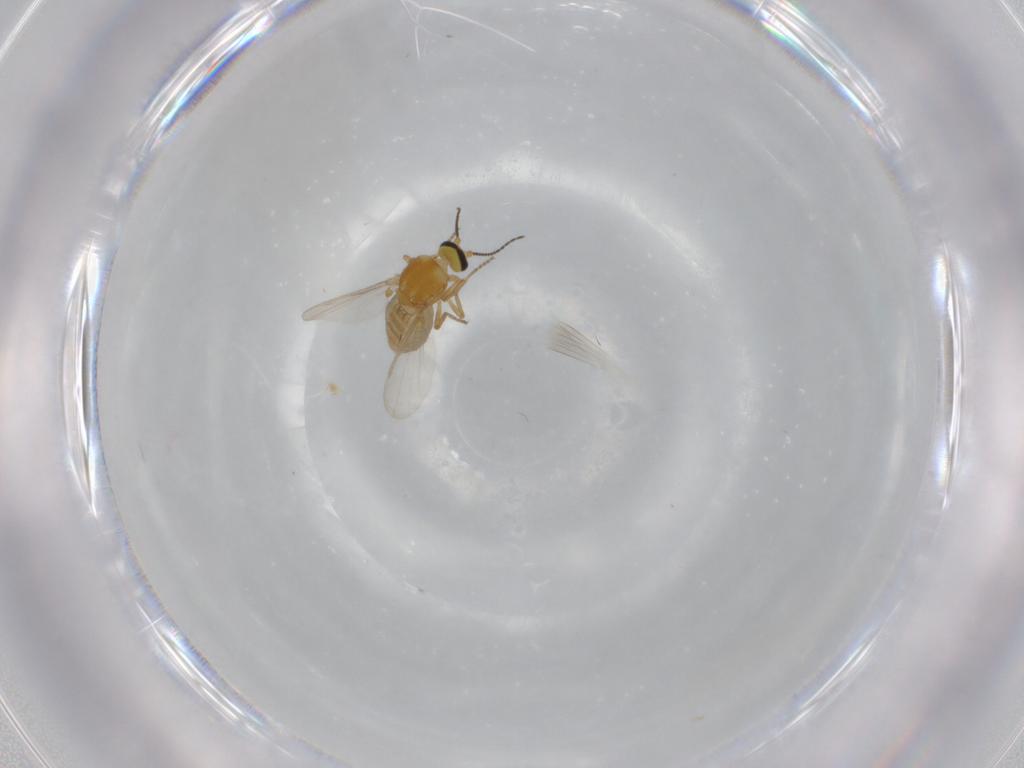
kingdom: Animalia
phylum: Arthropoda
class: Insecta
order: Diptera
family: Ceratopogonidae
